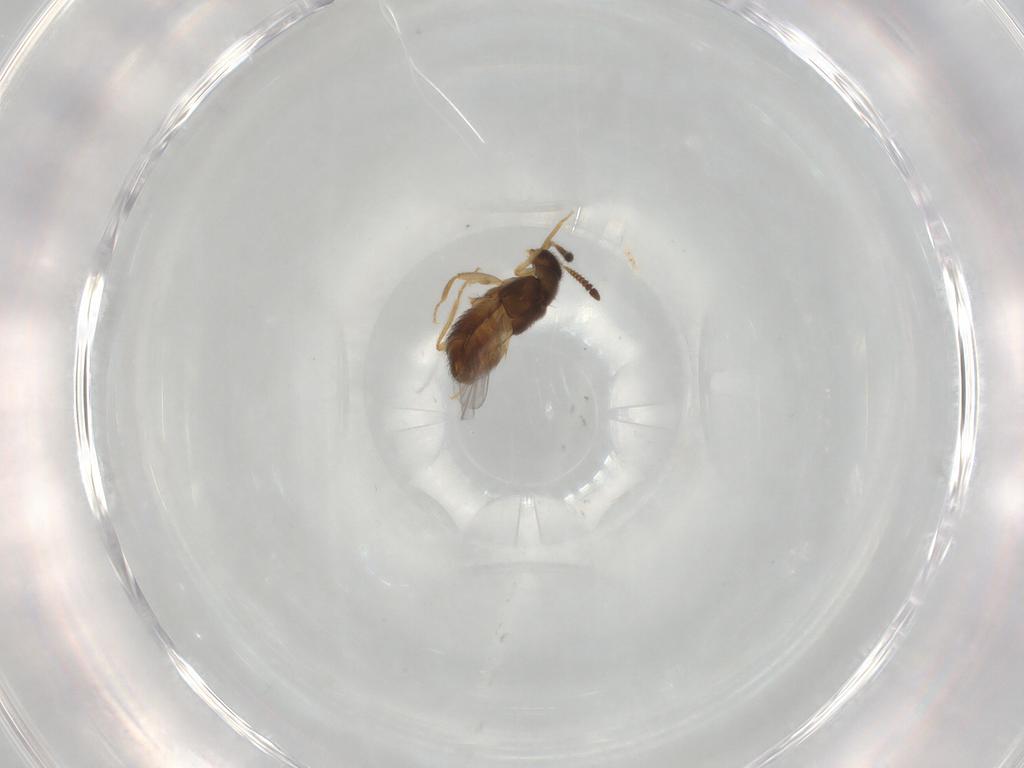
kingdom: Animalia
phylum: Arthropoda
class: Insecta
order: Coleoptera
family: Staphylinidae
